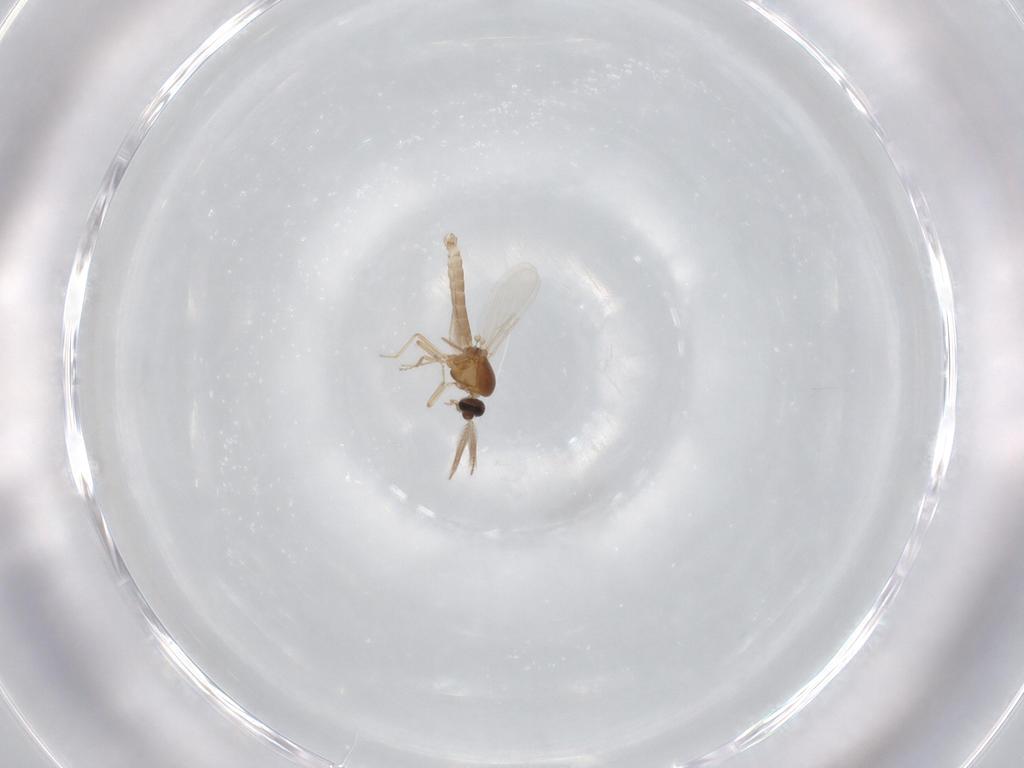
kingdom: Animalia
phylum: Arthropoda
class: Insecta
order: Diptera
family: Ceratopogonidae
